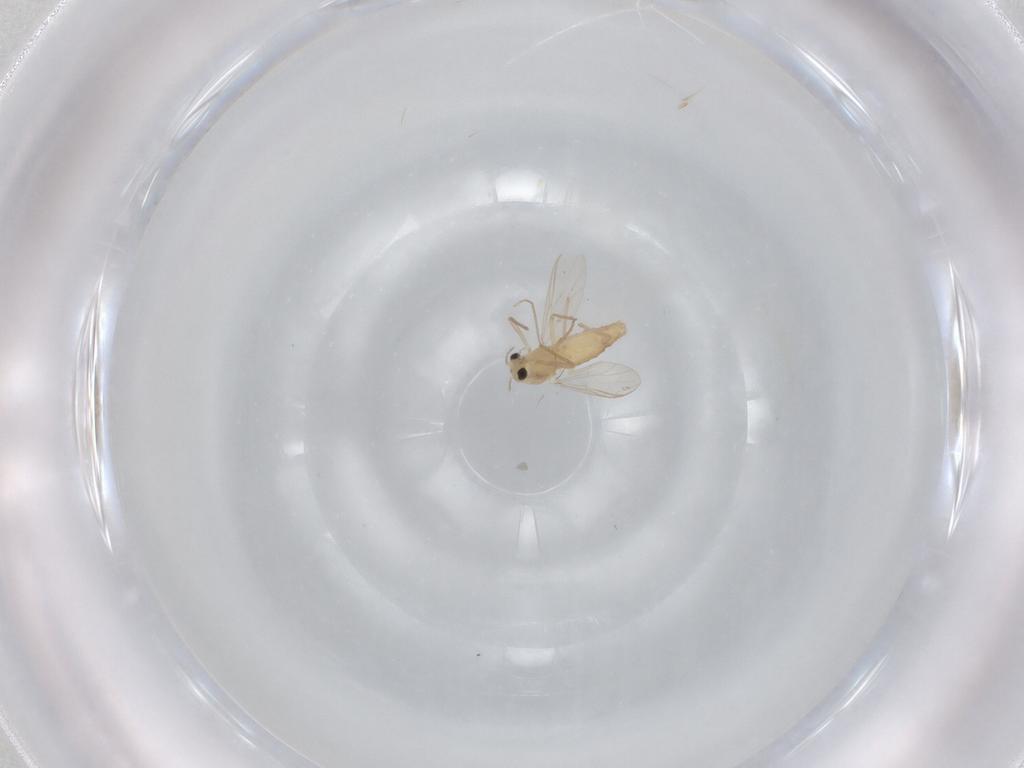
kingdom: Animalia
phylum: Arthropoda
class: Insecta
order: Diptera
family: Chironomidae
